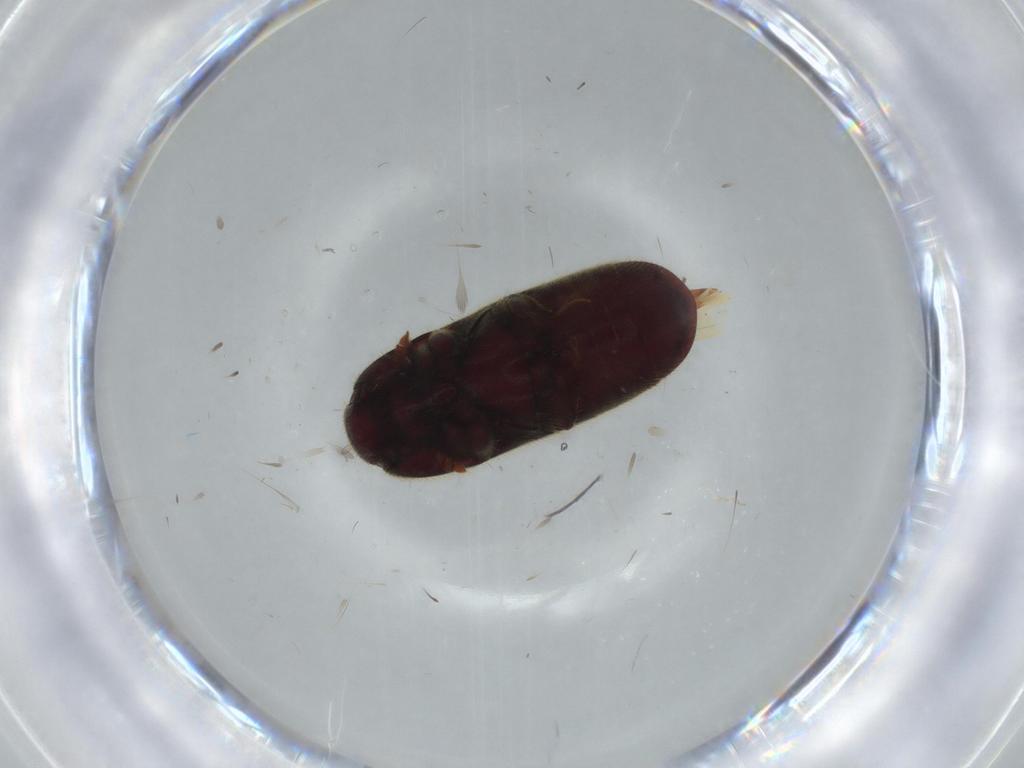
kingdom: Animalia
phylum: Arthropoda
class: Insecta
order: Coleoptera
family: Throscidae
